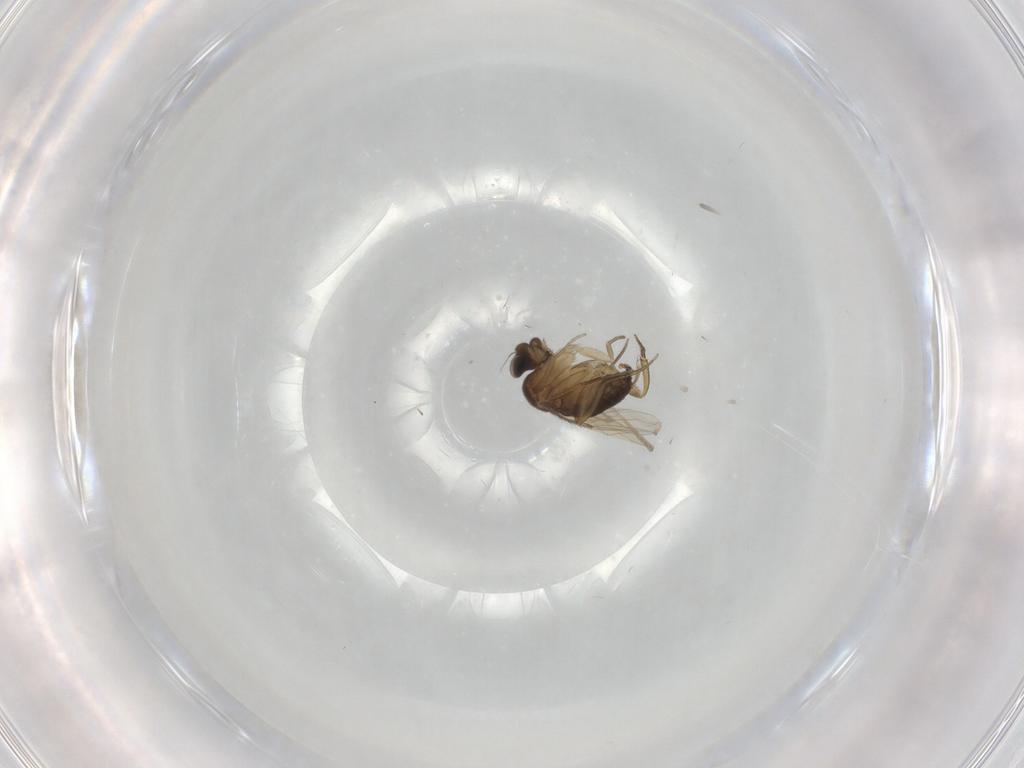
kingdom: Animalia
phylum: Arthropoda
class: Insecta
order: Diptera
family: Phoridae
